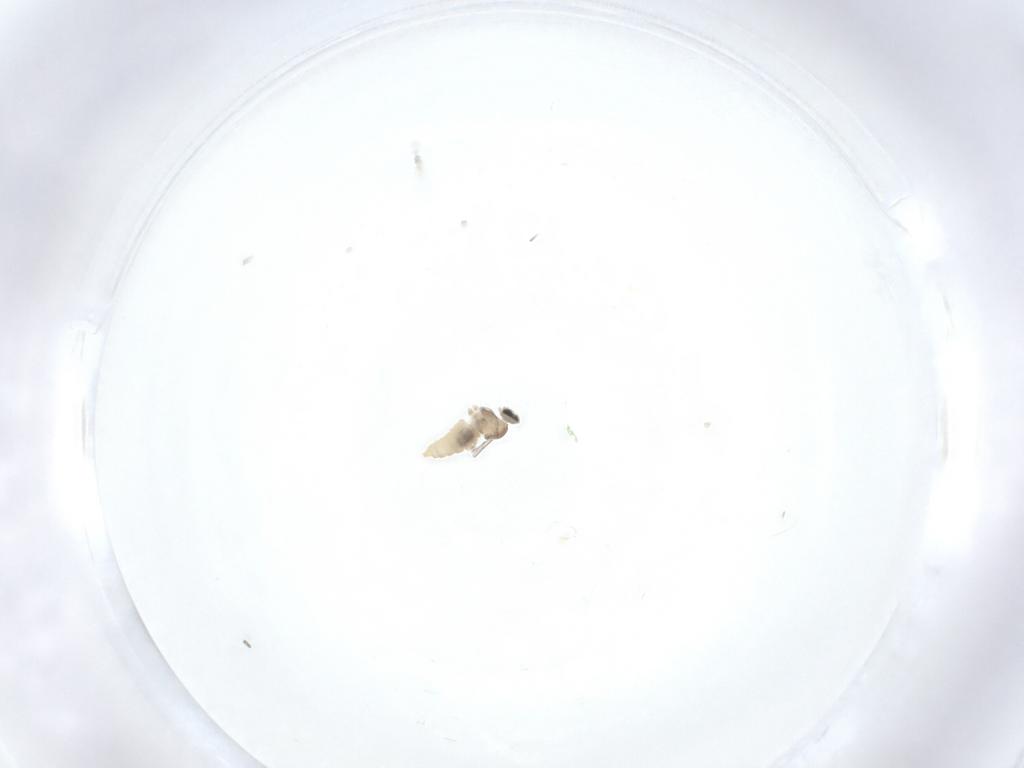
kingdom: Animalia
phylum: Arthropoda
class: Insecta
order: Diptera
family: Cecidomyiidae
